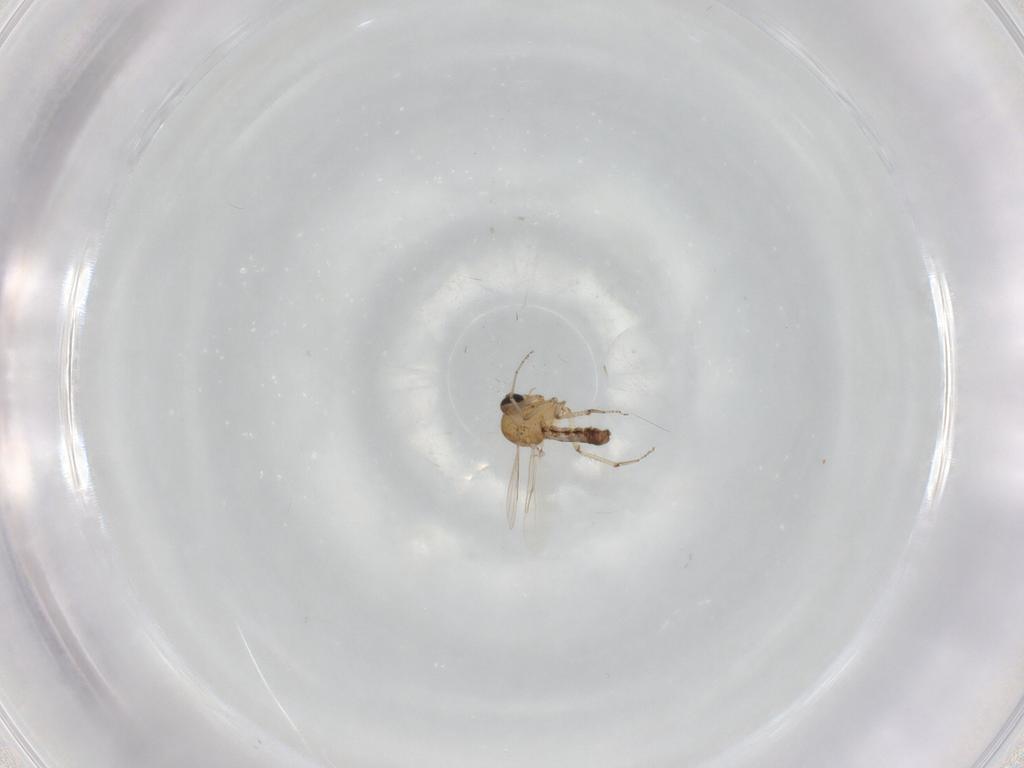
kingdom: Animalia
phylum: Arthropoda
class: Insecta
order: Diptera
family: Ceratopogonidae
